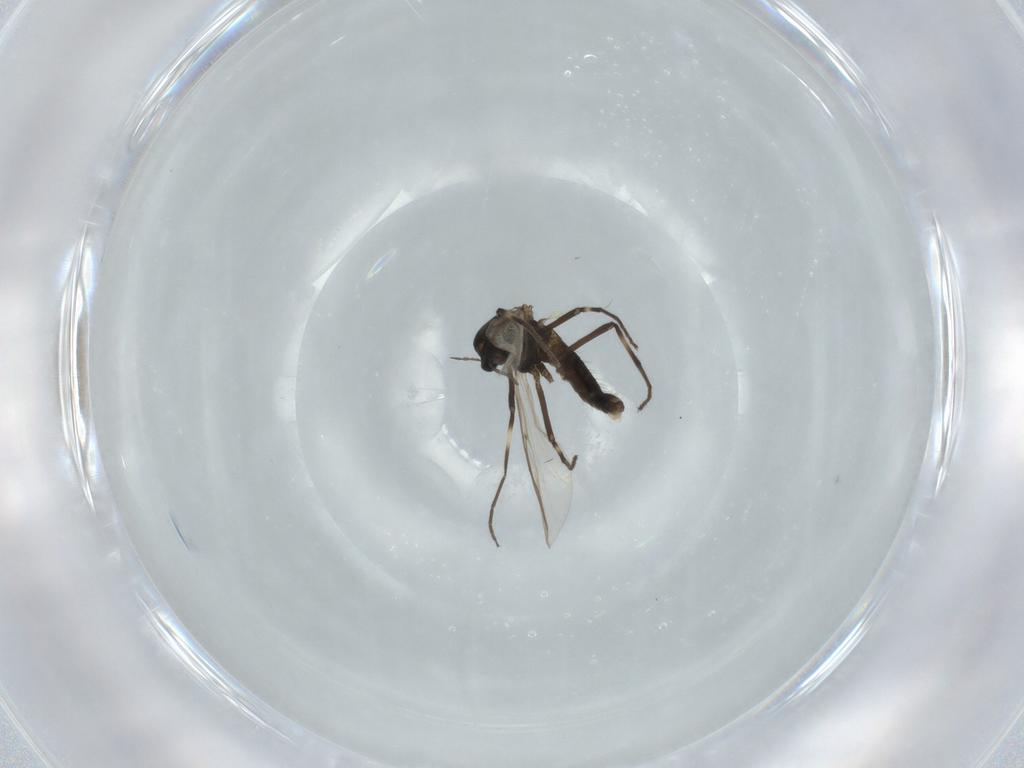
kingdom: Animalia
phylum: Arthropoda
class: Insecta
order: Diptera
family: Chironomidae
